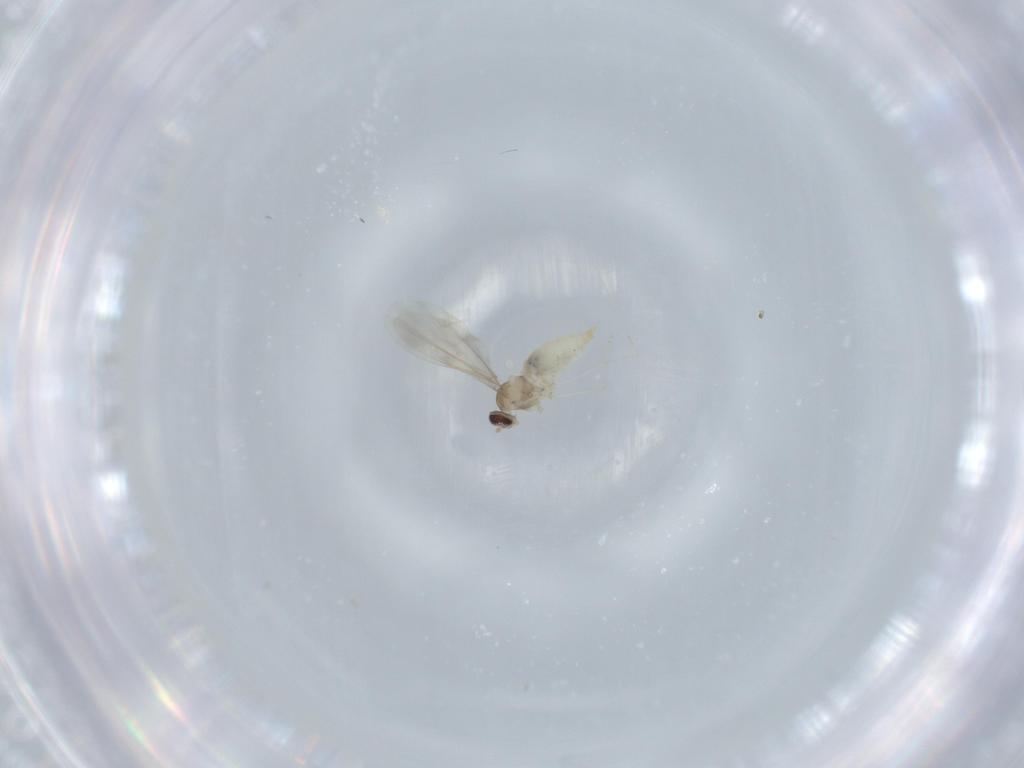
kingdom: Animalia
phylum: Arthropoda
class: Insecta
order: Diptera
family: Cecidomyiidae
